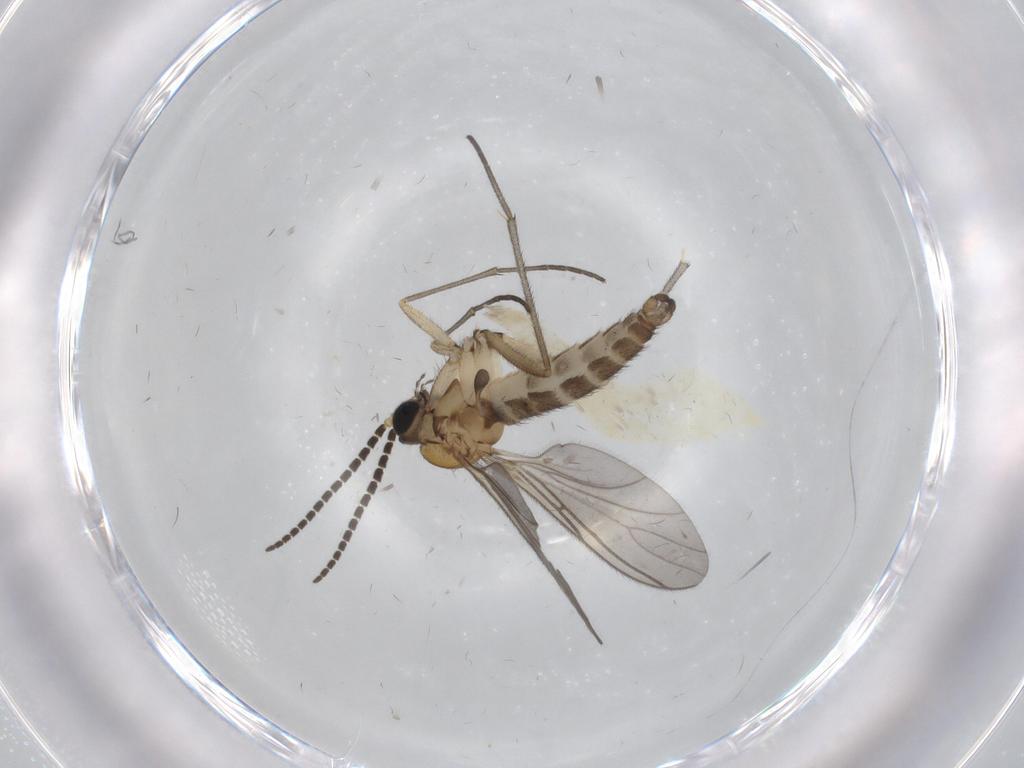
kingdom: Animalia
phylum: Arthropoda
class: Insecta
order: Diptera
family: Sciaridae
